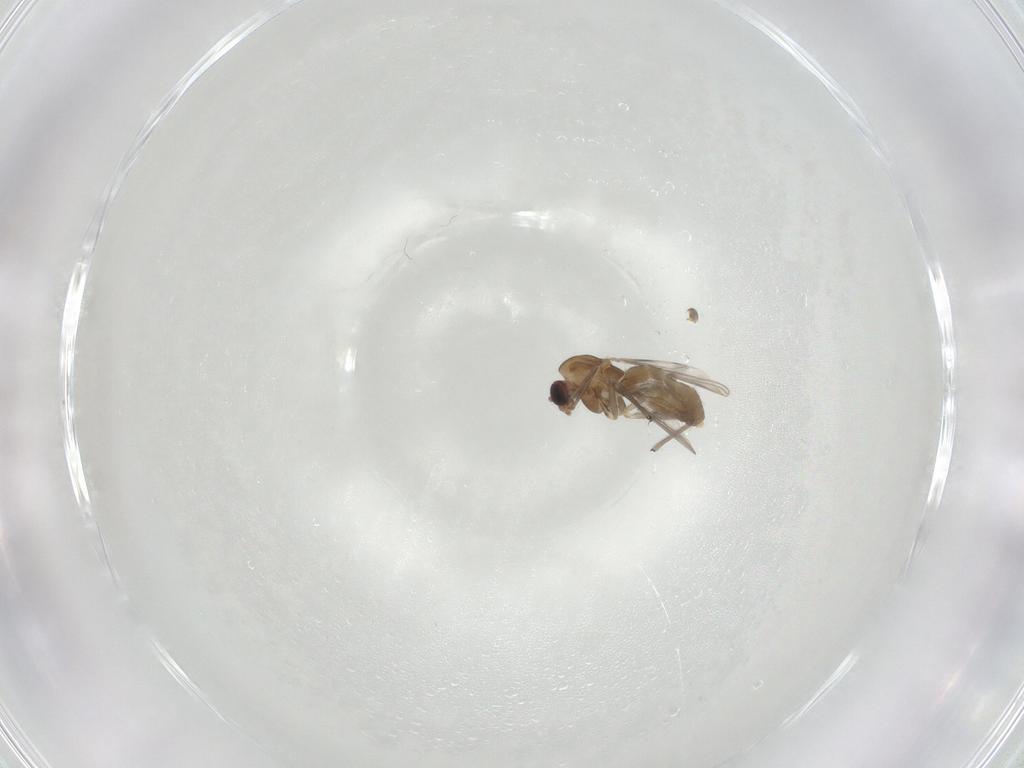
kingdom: Animalia
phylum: Arthropoda
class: Insecta
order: Diptera
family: Chironomidae
